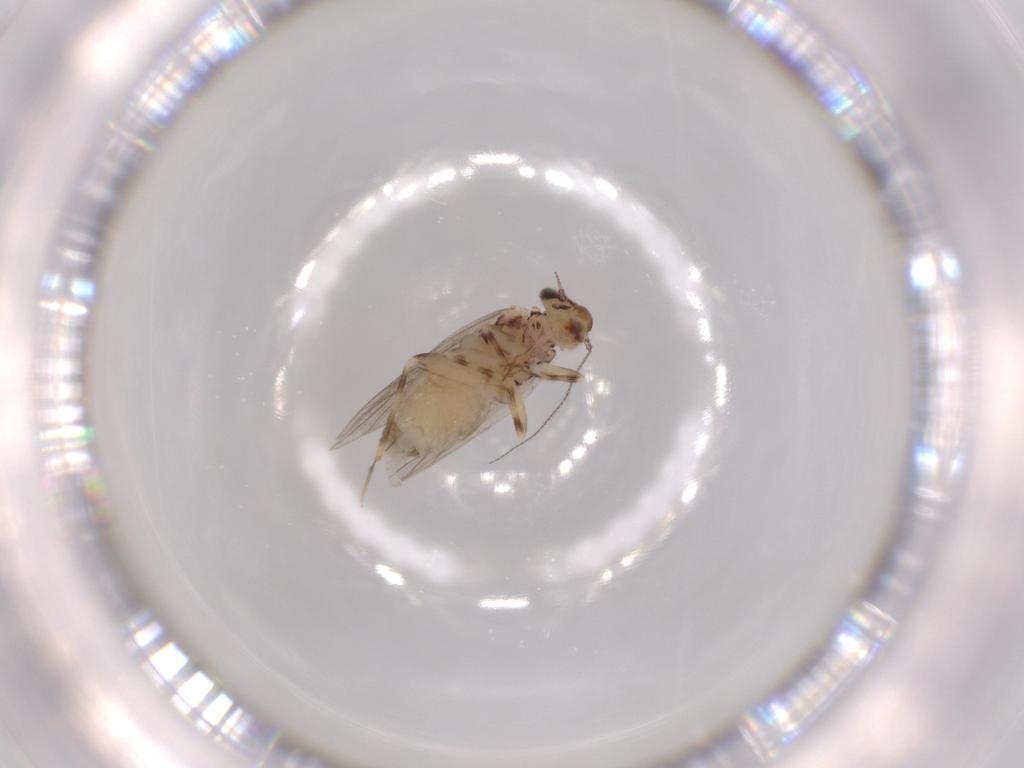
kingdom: Animalia
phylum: Arthropoda
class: Insecta
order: Psocodea
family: Lepidopsocidae
